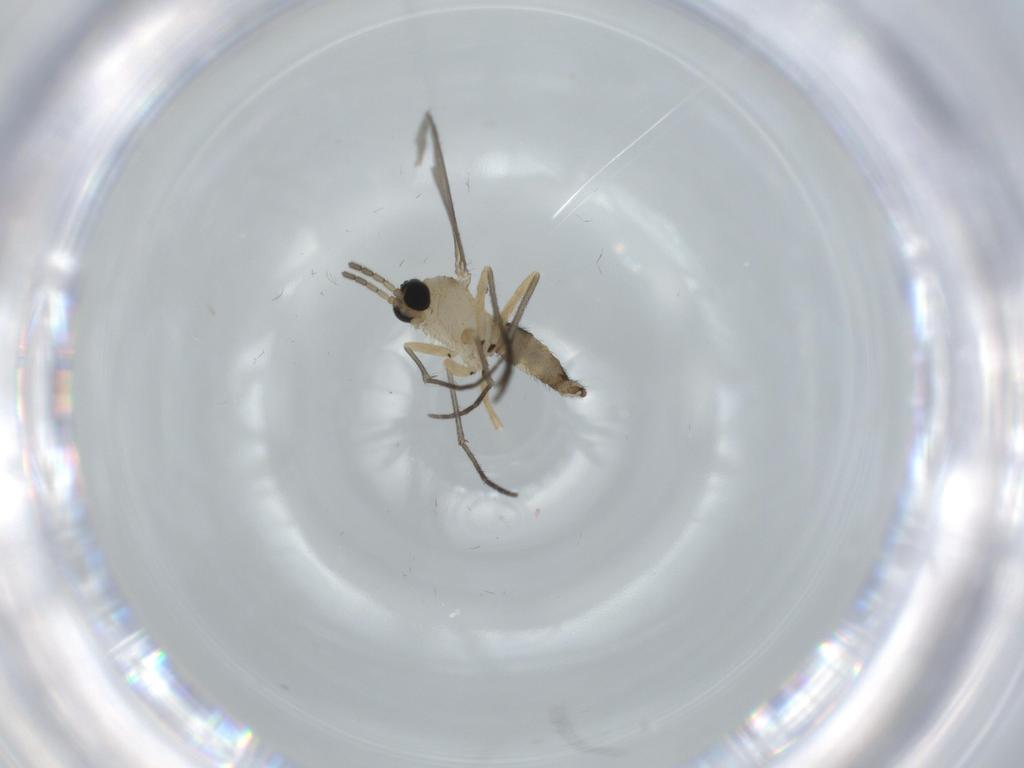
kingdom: Animalia
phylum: Arthropoda
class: Insecta
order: Diptera
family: Sciaridae
